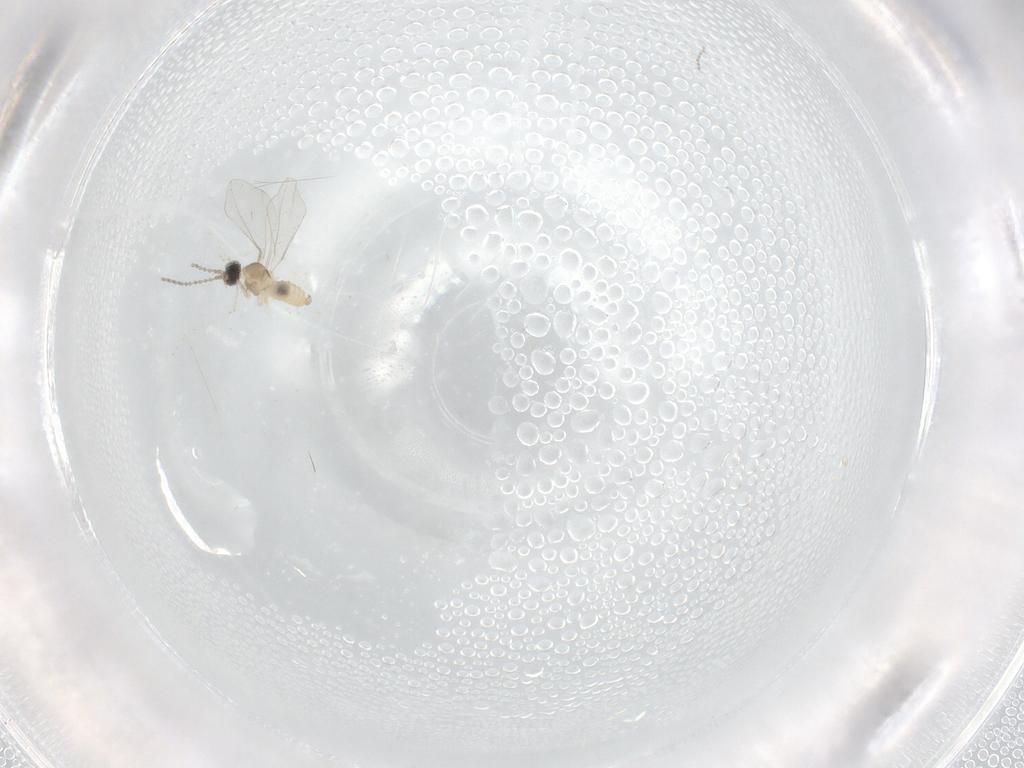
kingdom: Animalia
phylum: Arthropoda
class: Insecta
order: Diptera
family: Cecidomyiidae
